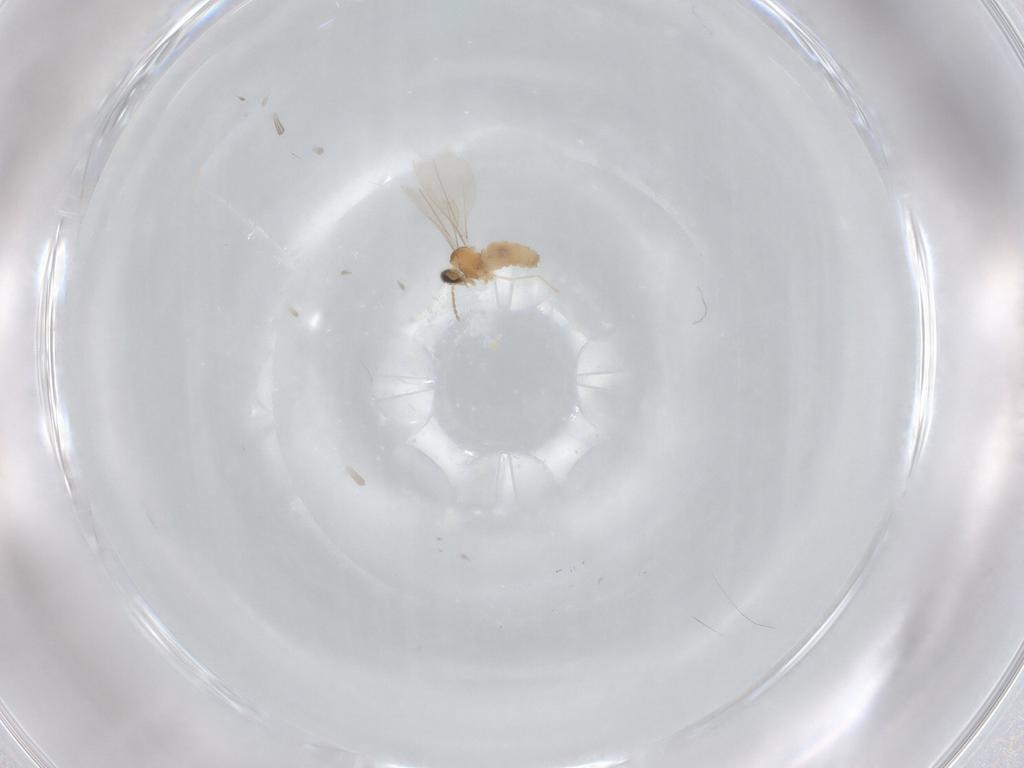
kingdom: Animalia
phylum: Arthropoda
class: Insecta
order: Diptera
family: Cecidomyiidae
